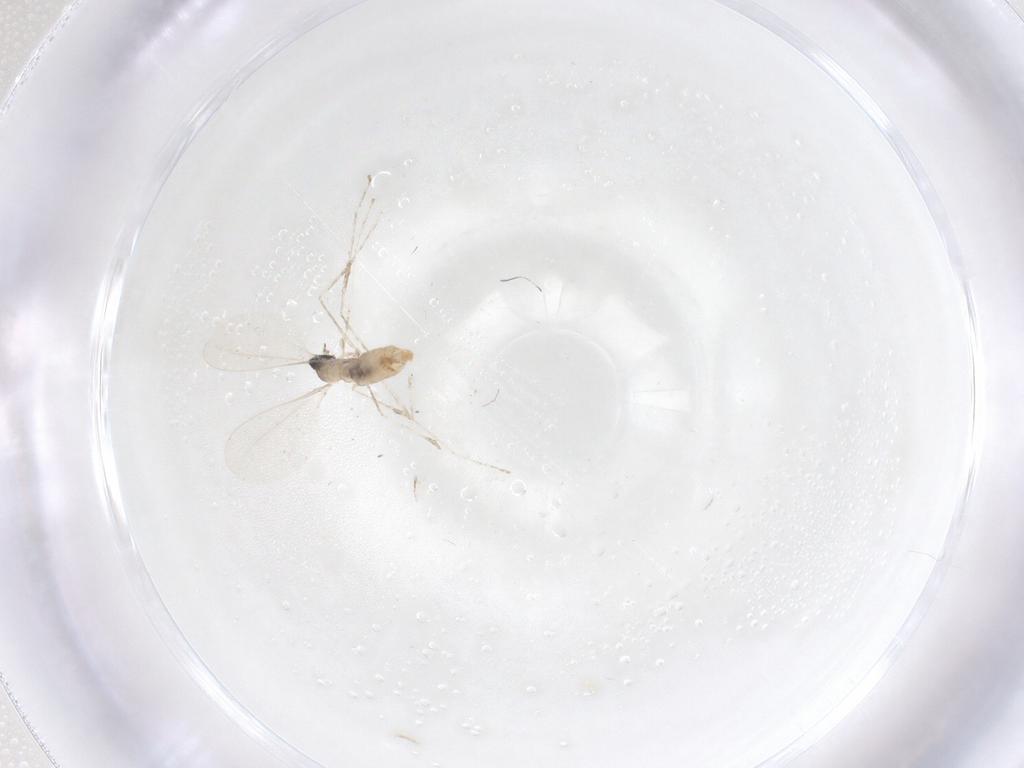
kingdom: Animalia
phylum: Arthropoda
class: Insecta
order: Diptera
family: Cecidomyiidae
